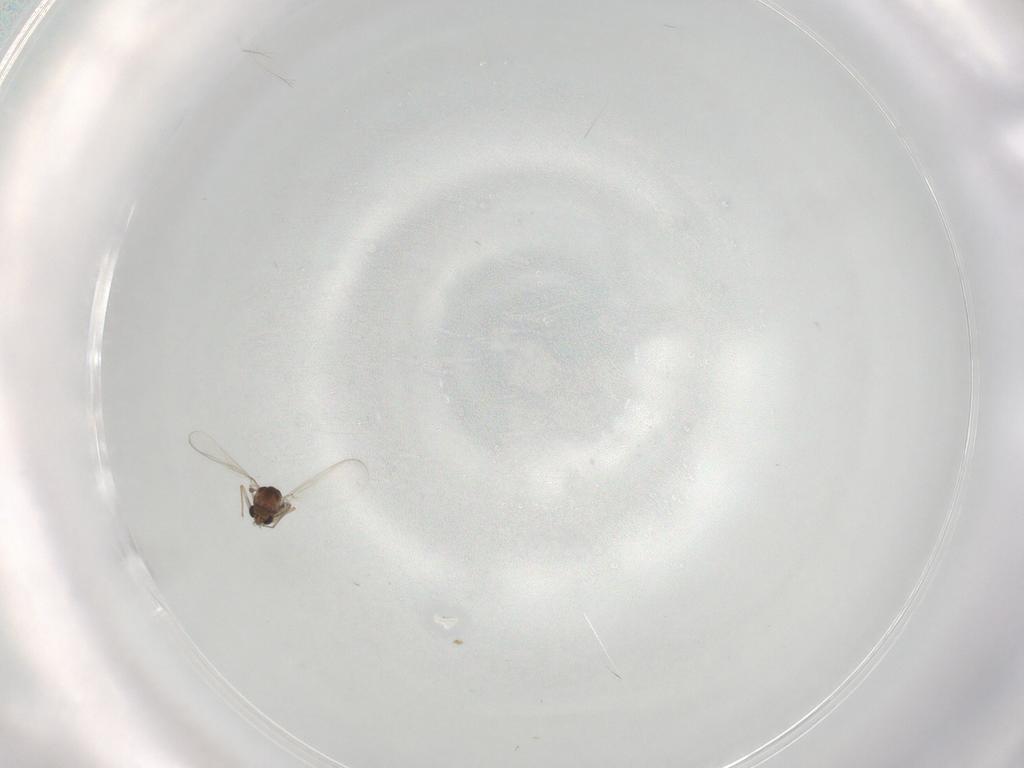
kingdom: Animalia
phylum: Arthropoda
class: Insecta
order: Diptera
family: Chironomidae
